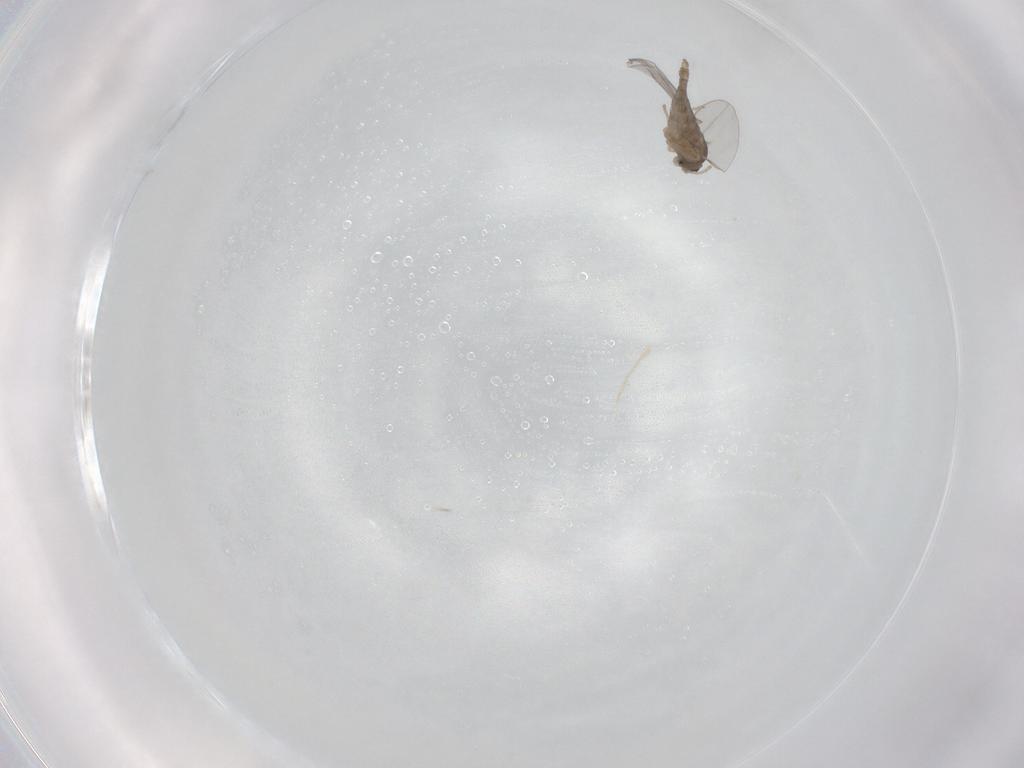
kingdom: Animalia
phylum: Arthropoda
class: Insecta
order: Diptera
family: Cecidomyiidae
